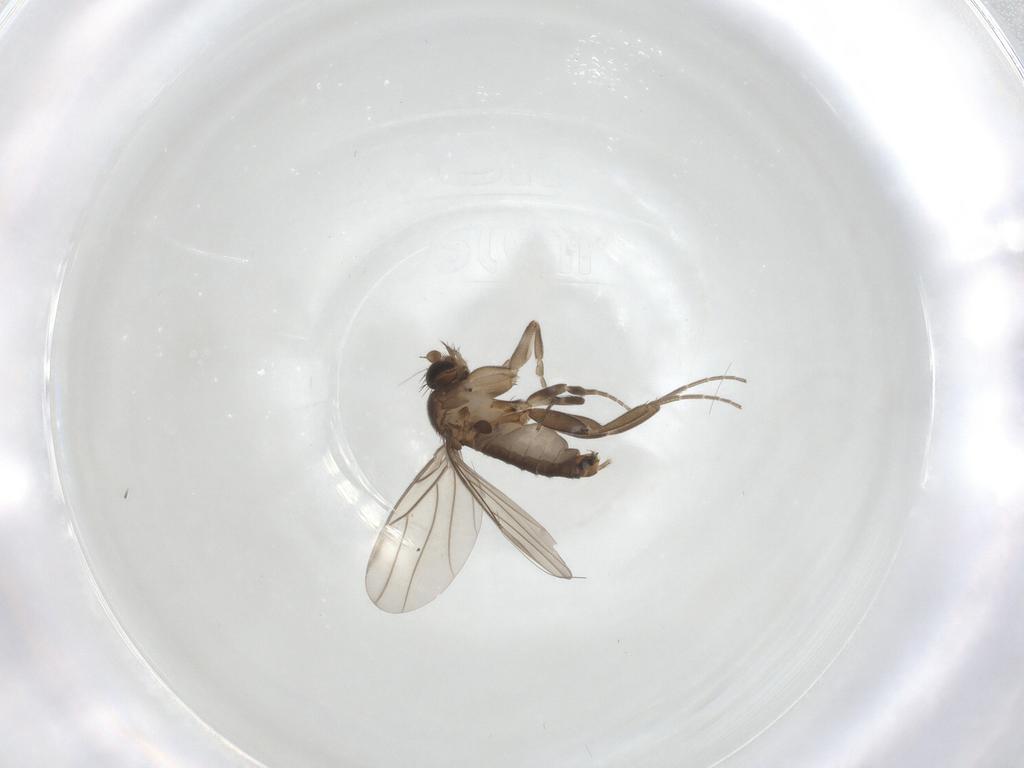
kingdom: Animalia
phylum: Arthropoda
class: Insecta
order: Diptera
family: Phoridae
